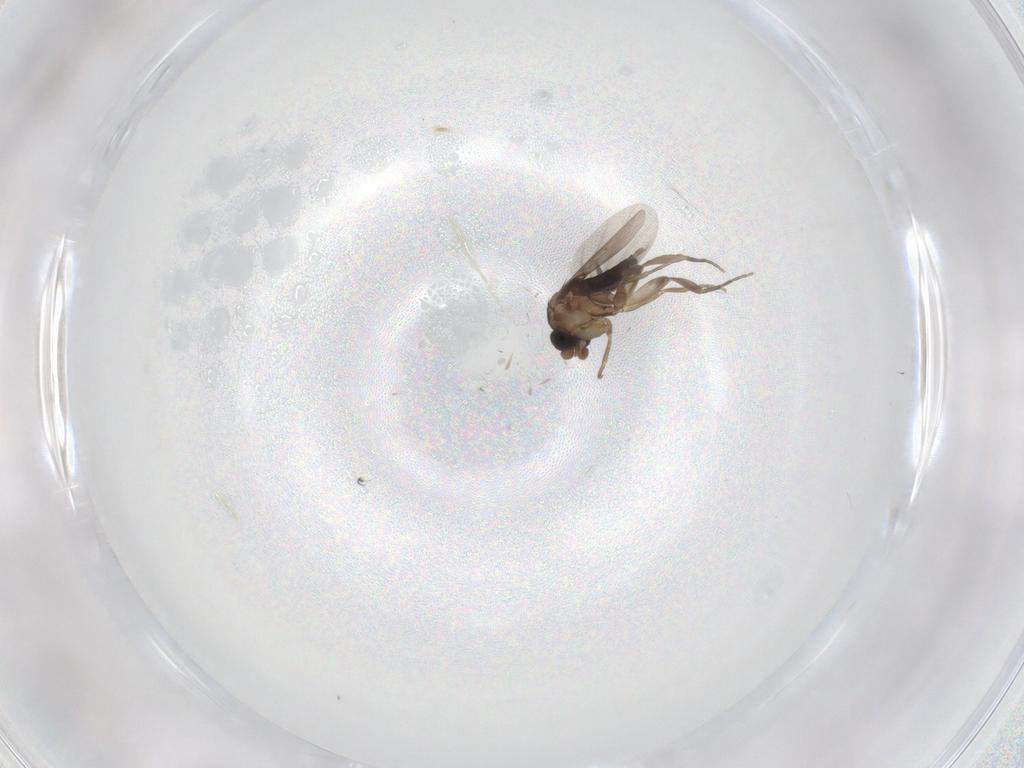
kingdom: Animalia
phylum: Arthropoda
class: Insecta
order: Diptera
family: Phoridae
